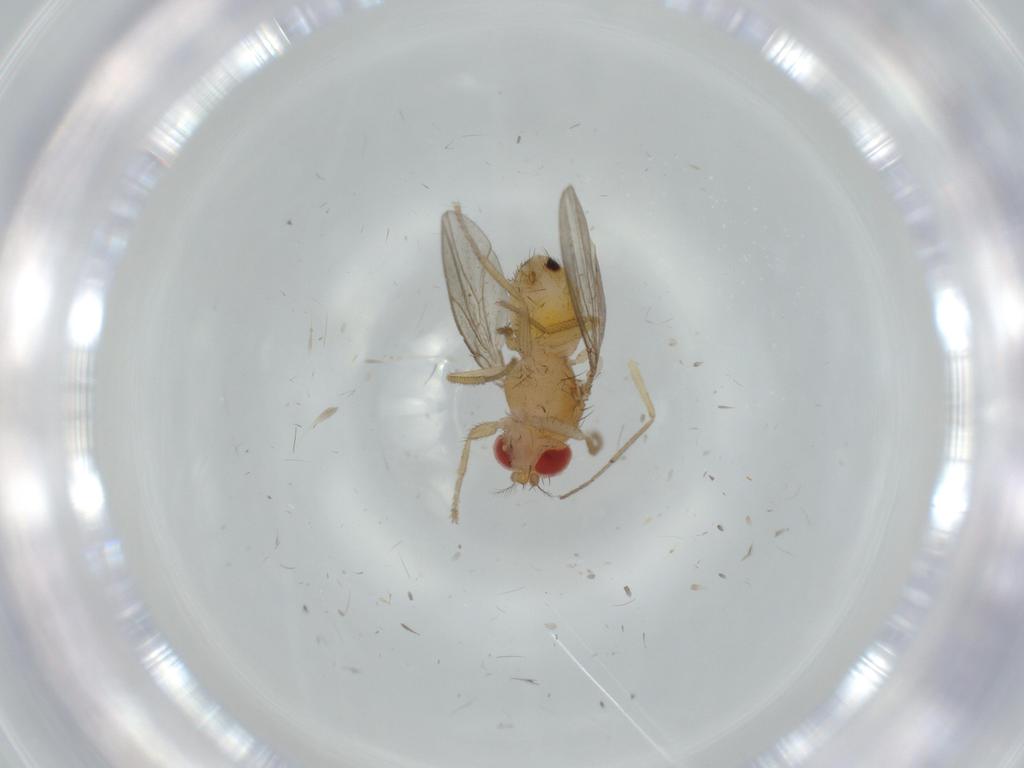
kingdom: Animalia
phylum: Arthropoda
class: Insecta
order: Diptera
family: Drosophilidae
